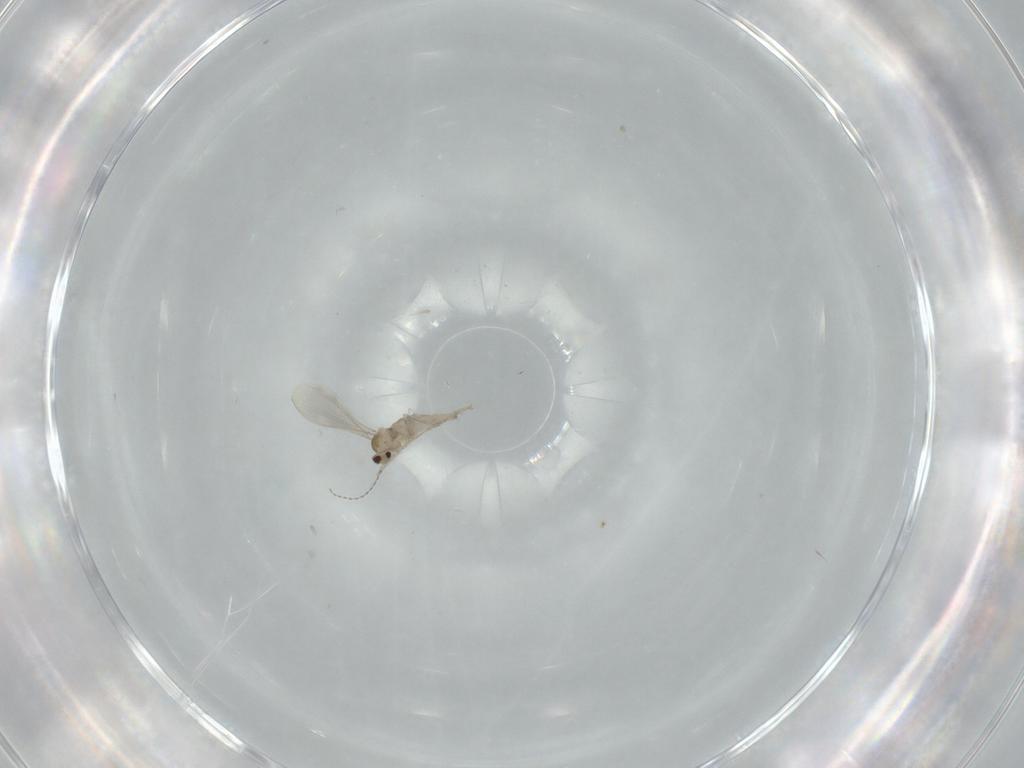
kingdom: Animalia
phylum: Arthropoda
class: Insecta
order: Diptera
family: Cecidomyiidae
